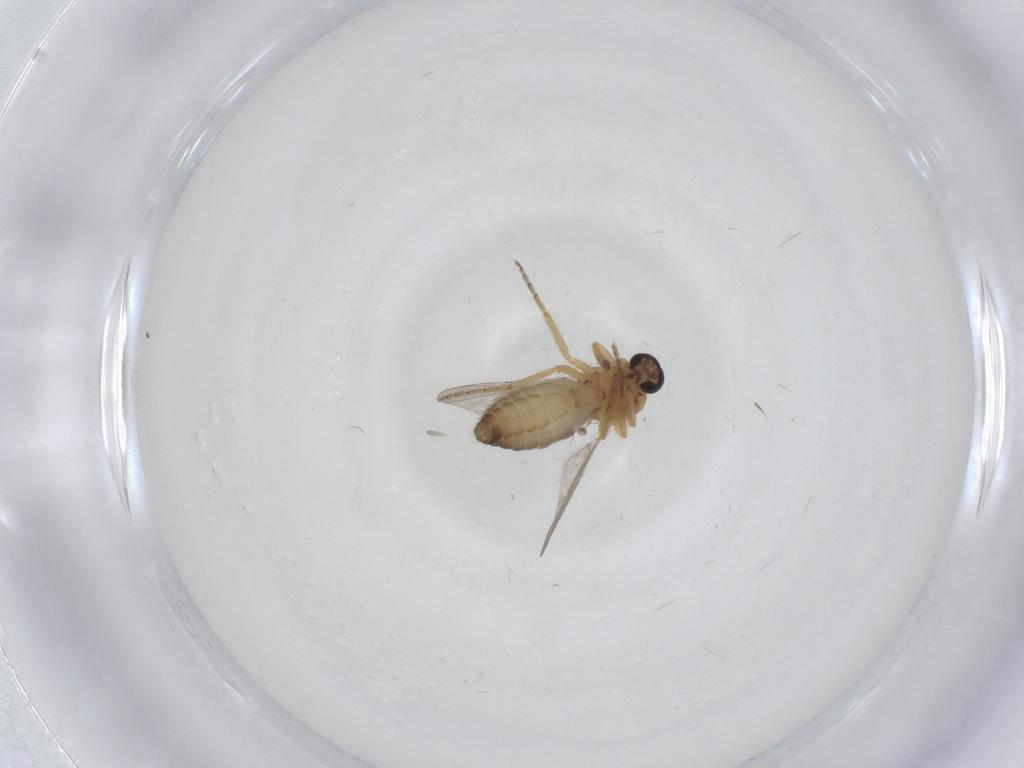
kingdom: Animalia
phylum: Arthropoda
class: Insecta
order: Diptera
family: Ceratopogonidae
